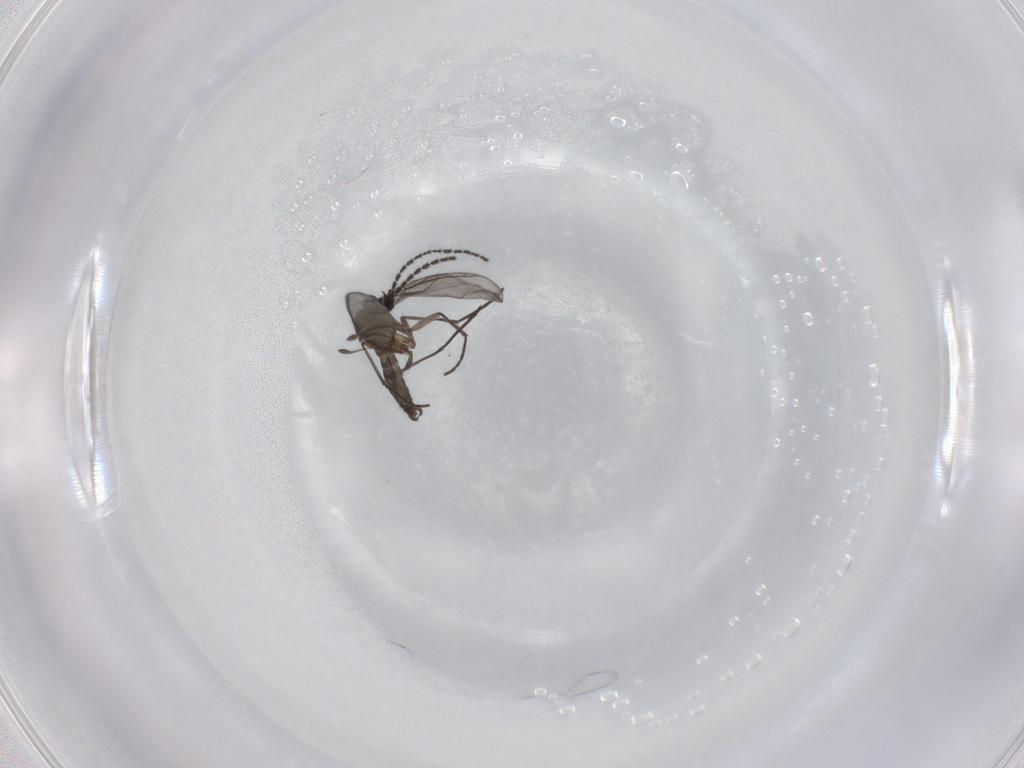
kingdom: Animalia
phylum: Arthropoda
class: Insecta
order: Diptera
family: Sciaridae
